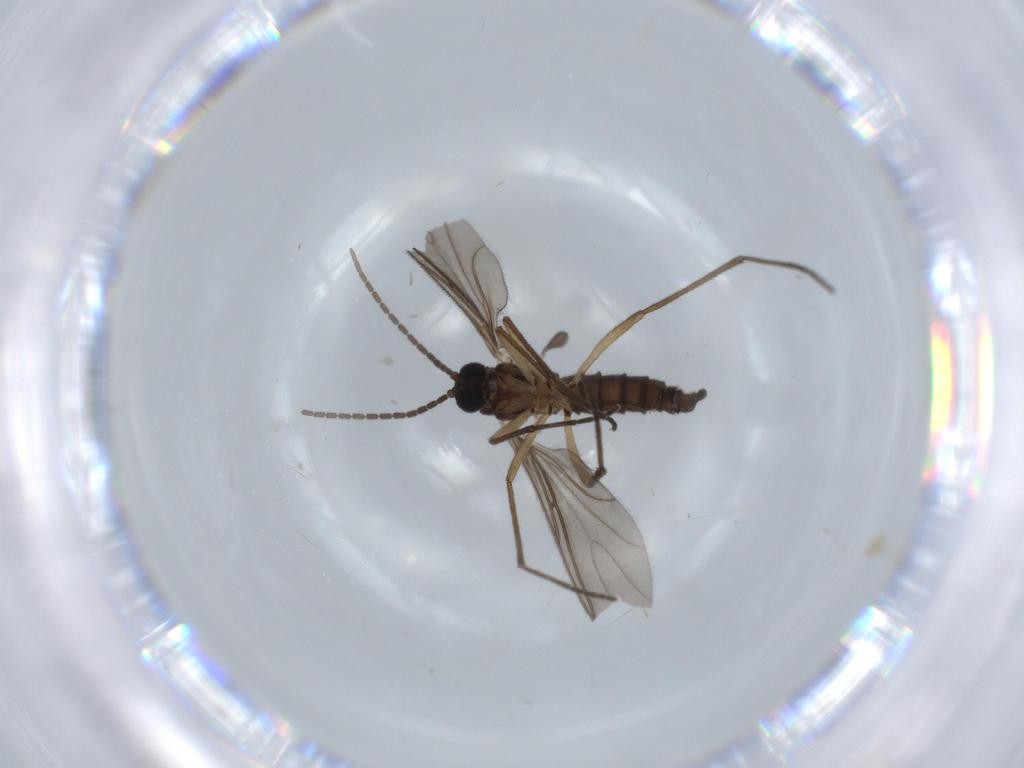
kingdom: Animalia
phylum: Arthropoda
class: Insecta
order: Diptera
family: Sciaridae
